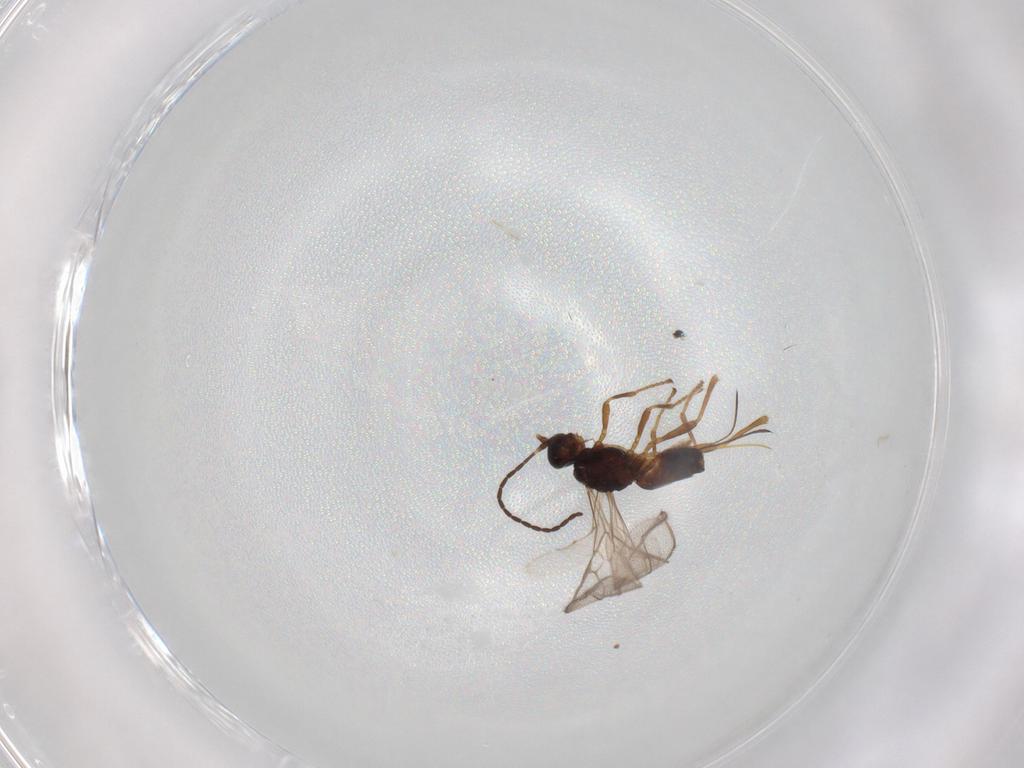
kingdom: Animalia
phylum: Arthropoda
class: Insecta
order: Hymenoptera
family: Braconidae
